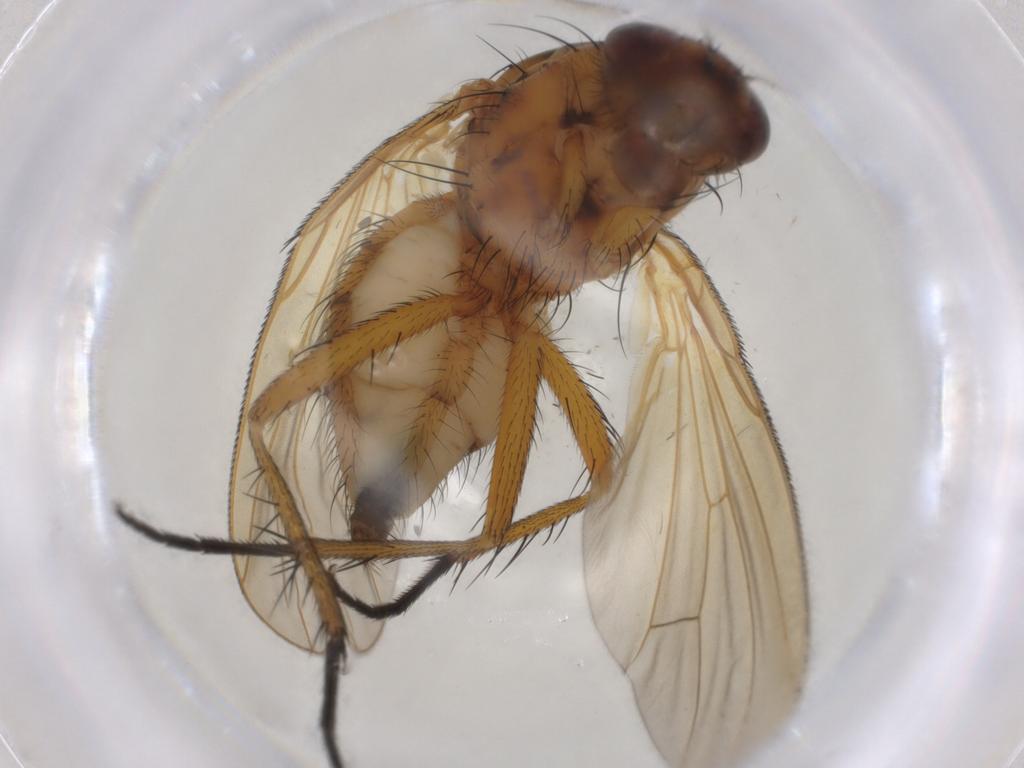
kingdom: Animalia
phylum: Arthropoda
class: Insecta
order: Diptera
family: Anthomyiidae
